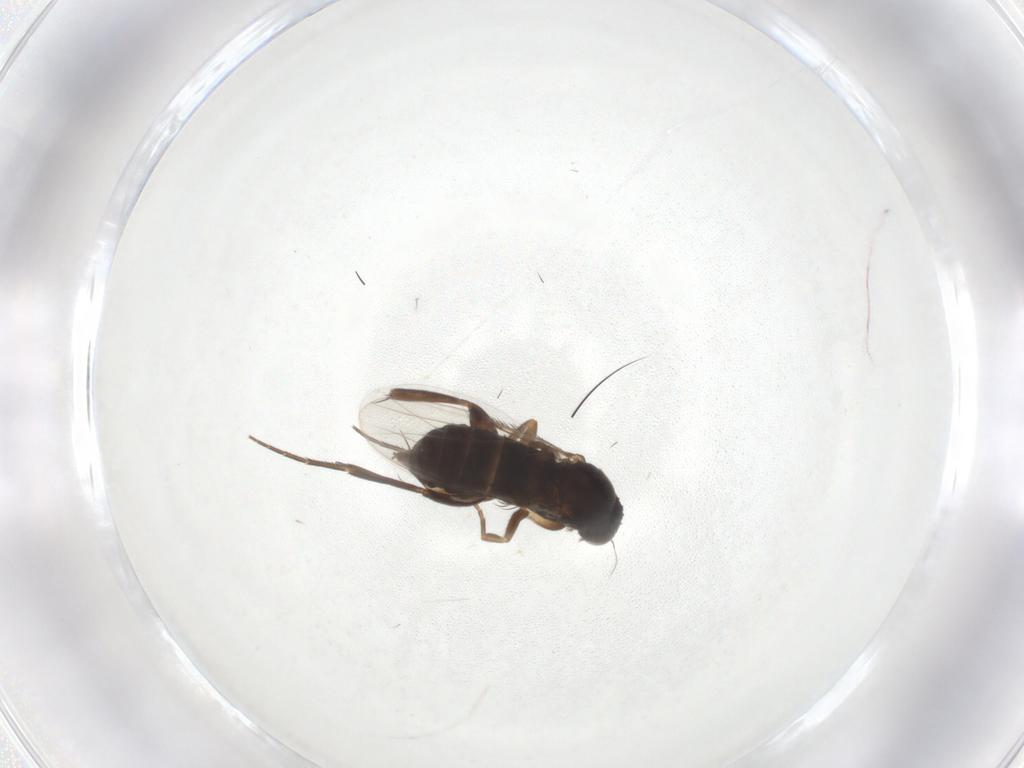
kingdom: Animalia
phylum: Arthropoda
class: Insecta
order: Diptera
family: Phoridae
